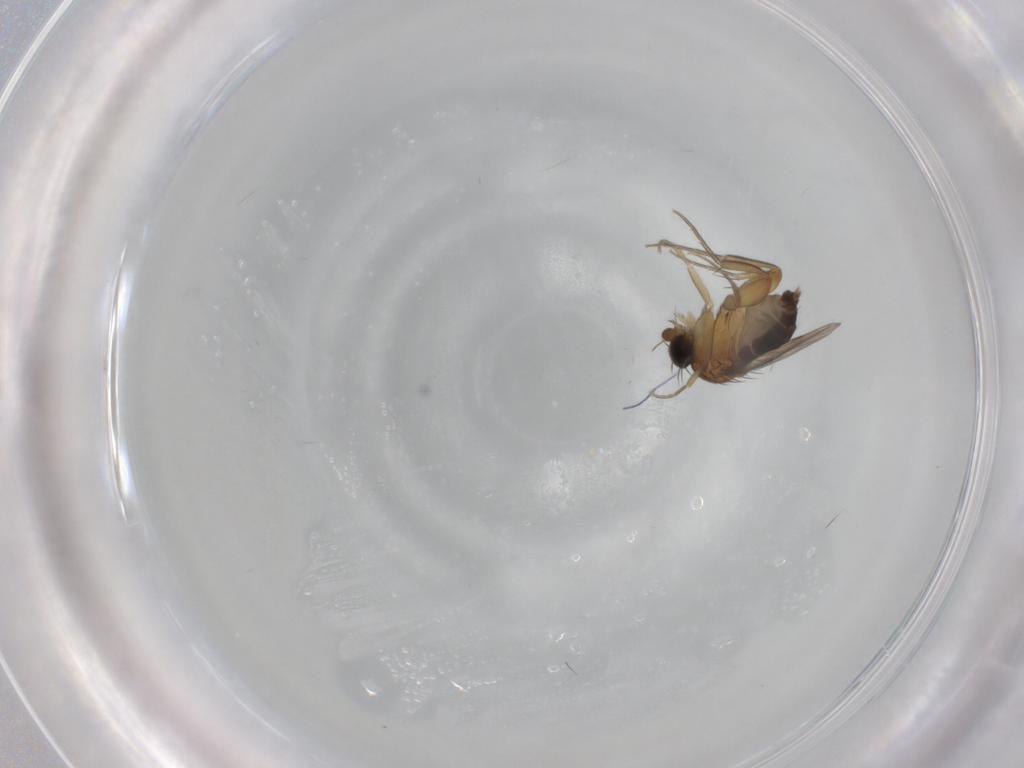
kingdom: Animalia
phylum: Arthropoda
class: Insecta
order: Diptera
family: Phoridae
